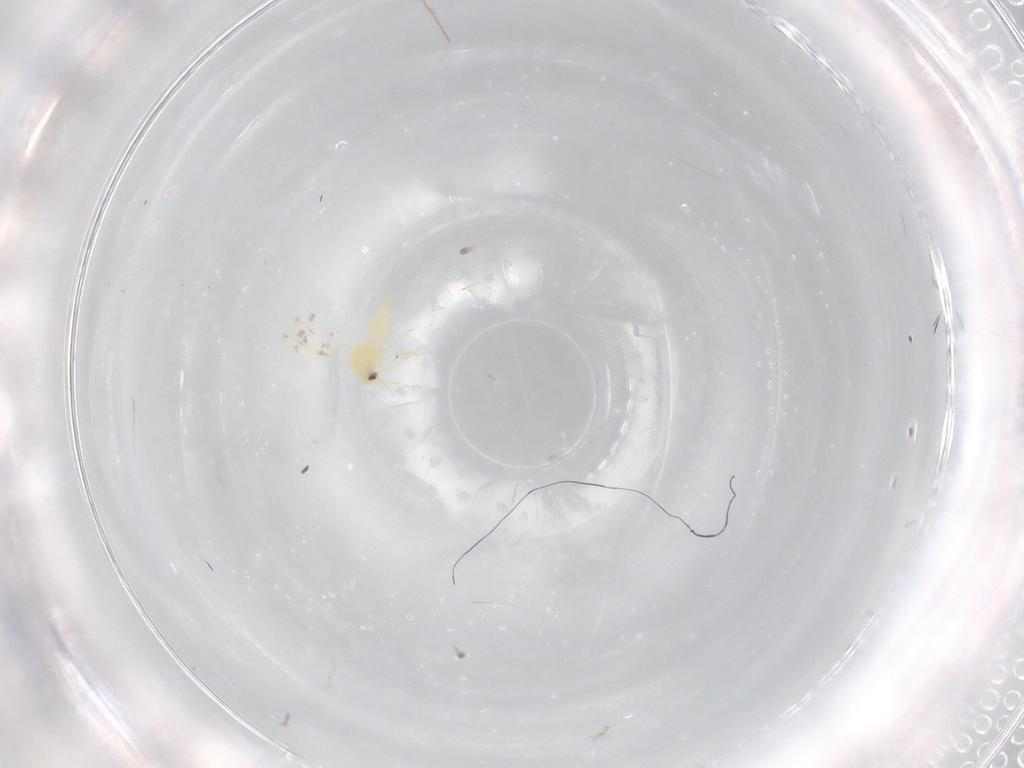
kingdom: Animalia
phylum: Arthropoda
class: Insecta
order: Hemiptera
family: Aleyrodidae
